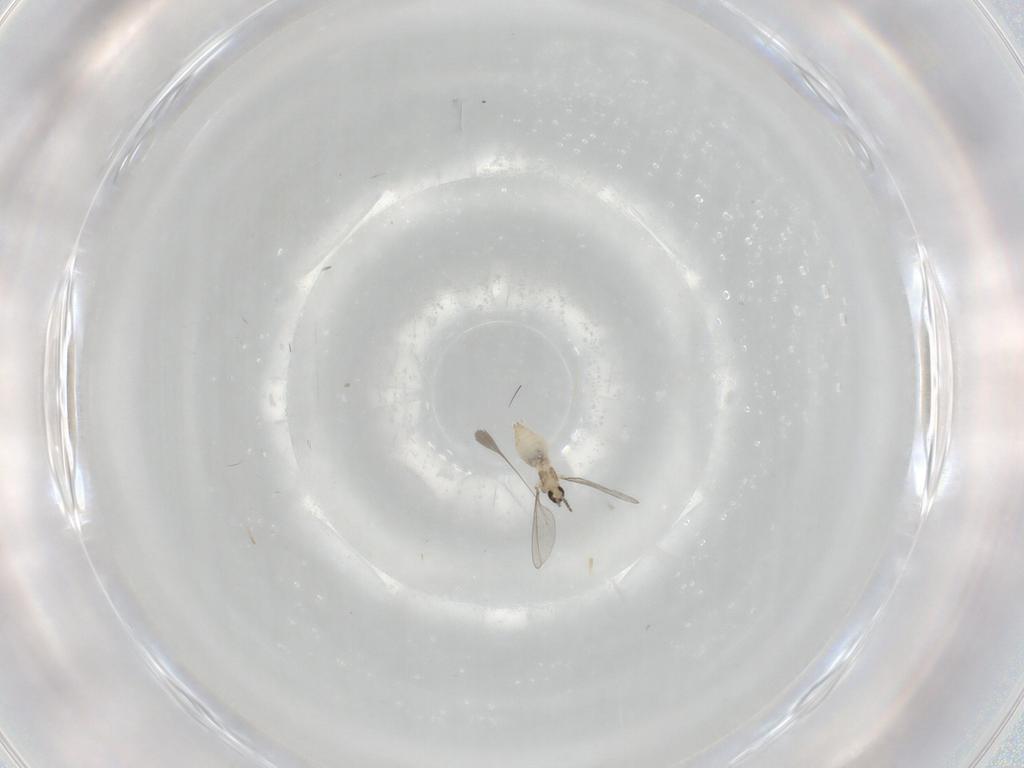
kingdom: Animalia
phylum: Arthropoda
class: Insecta
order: Diptera
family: Cecidomyiidae
